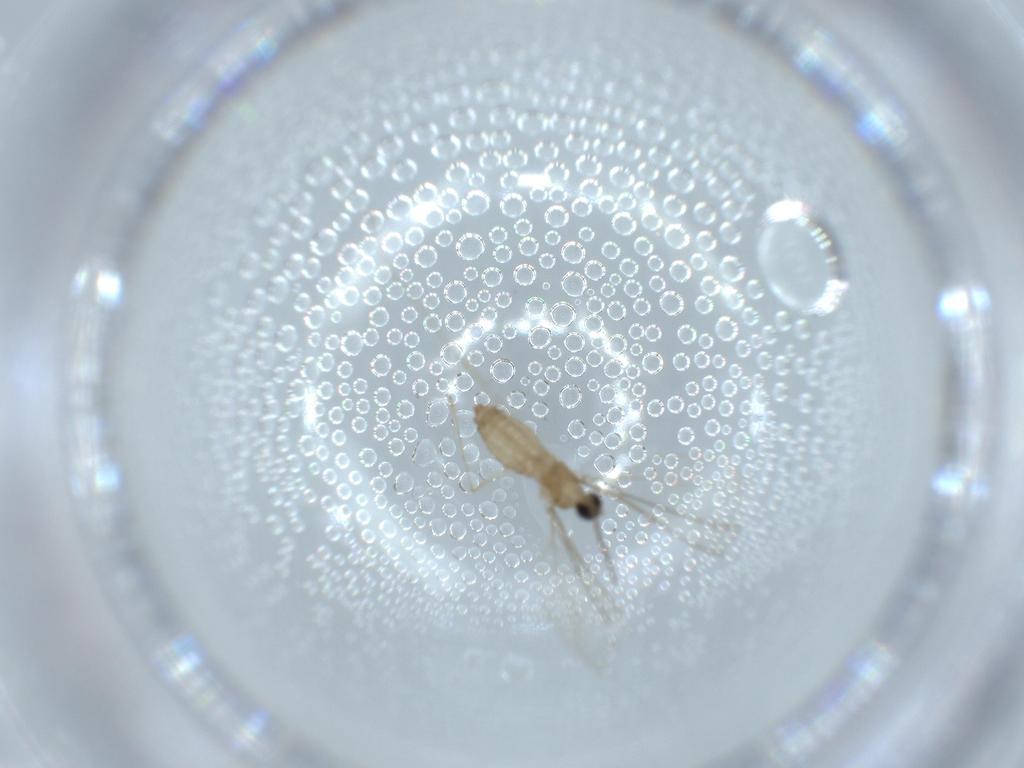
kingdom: Animalia
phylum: Arthropoda
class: Insecta
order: Diptera
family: Cecidomyiidae
